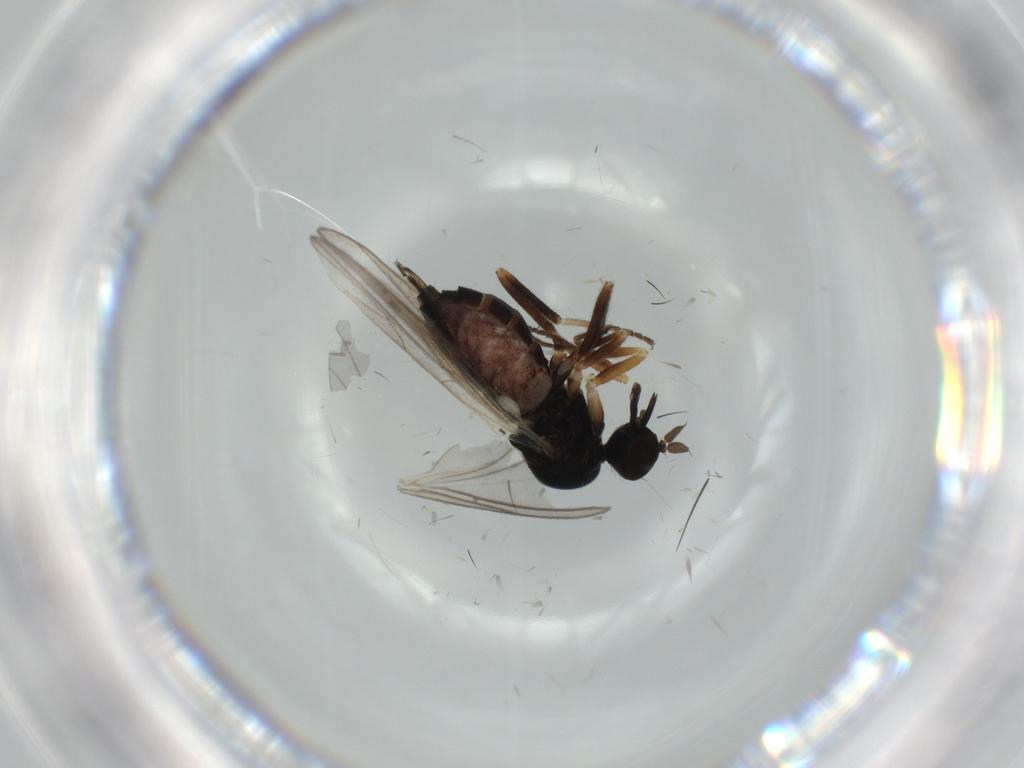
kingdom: Animalia
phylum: Arthropoda
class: Insecta
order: Diptera
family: Hybotidae
